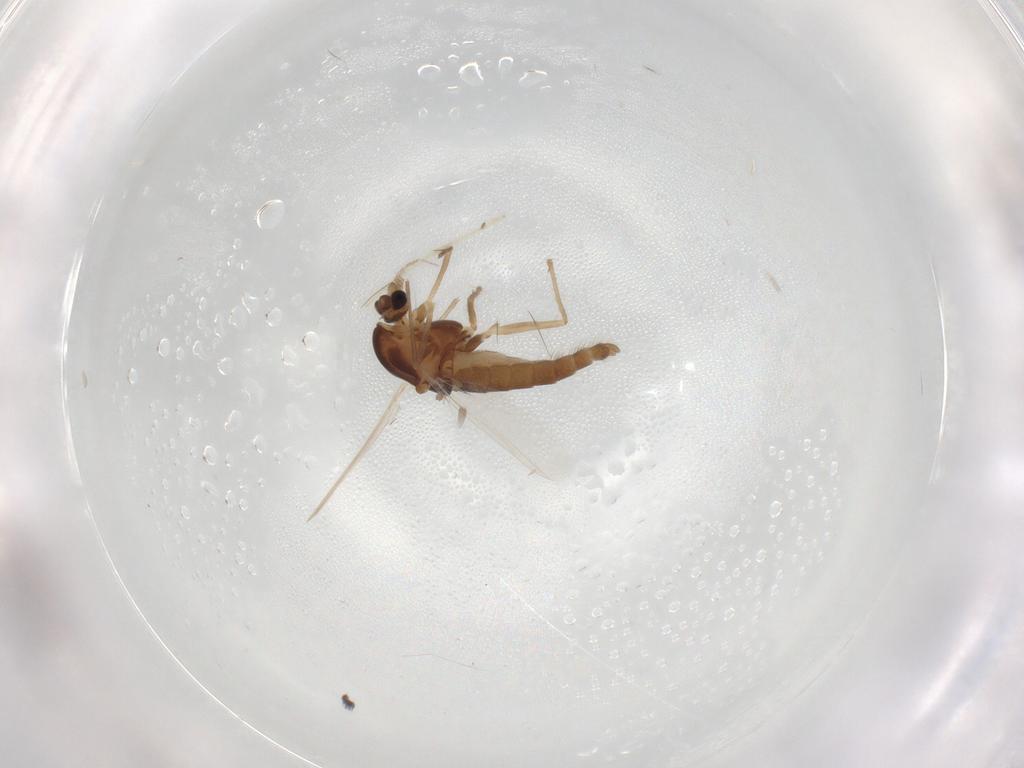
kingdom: Animalia
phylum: Arthropoda
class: Insecta
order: Diptera
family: Chironomidae
